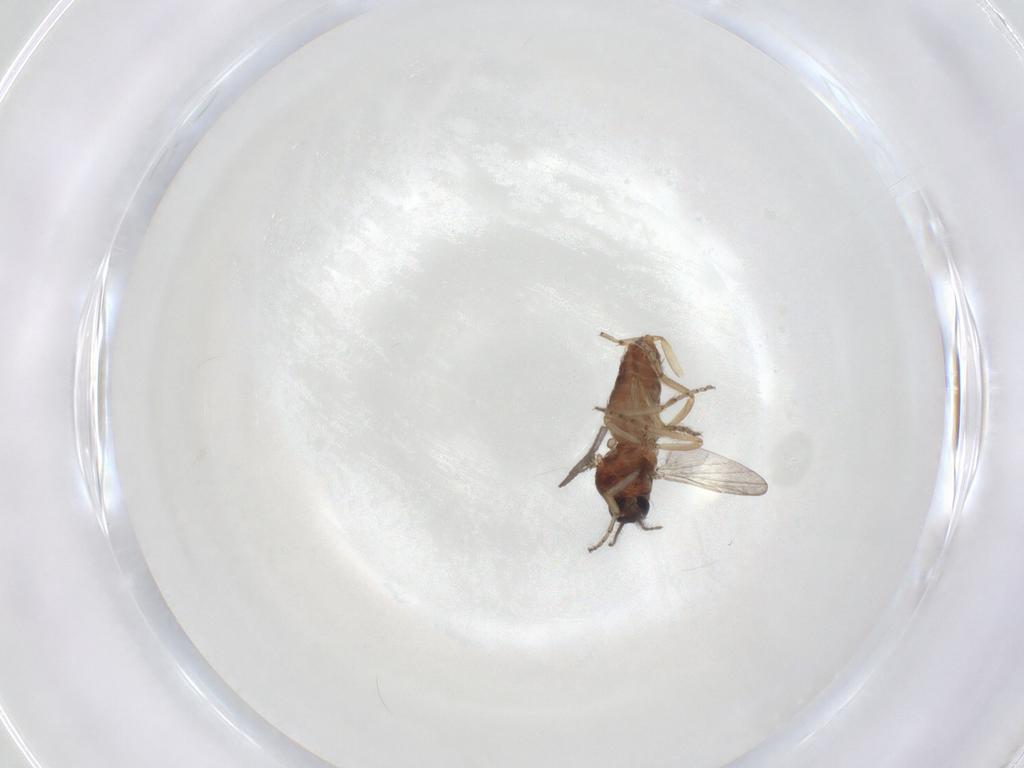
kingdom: Animalia
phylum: Arthropoda
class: Insecta
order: Diptera
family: Ceratopogonidae
